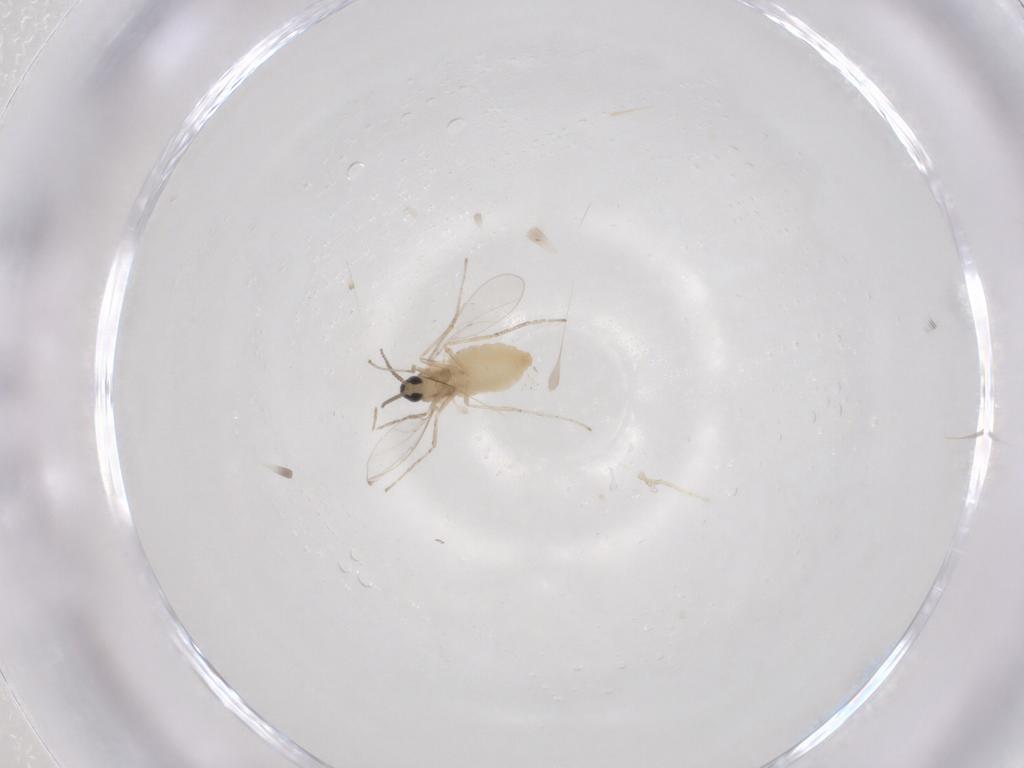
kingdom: Animalia
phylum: Arthropoda
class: Insecta
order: Diptera
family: Cecidomyiidae
